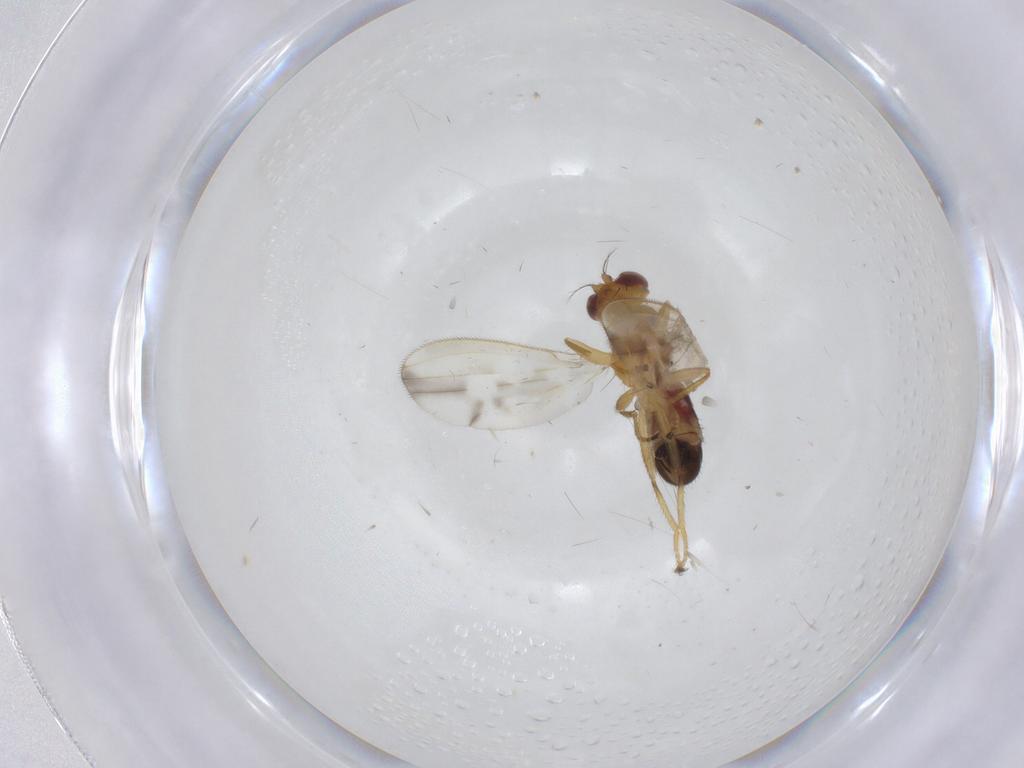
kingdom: Animalia
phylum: Arthropoda
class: Insecta
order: Diptera
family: Periscelididae
